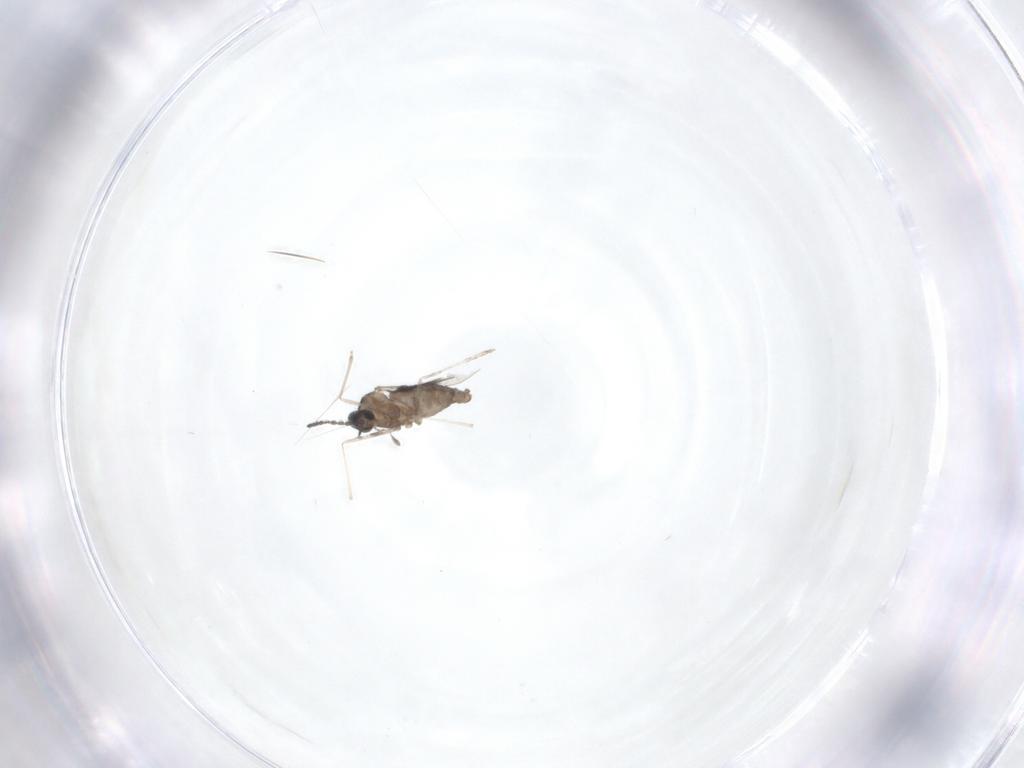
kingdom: Animalia
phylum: Arthropoda
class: Insecta
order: Diptera
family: Cecidomyiidae
